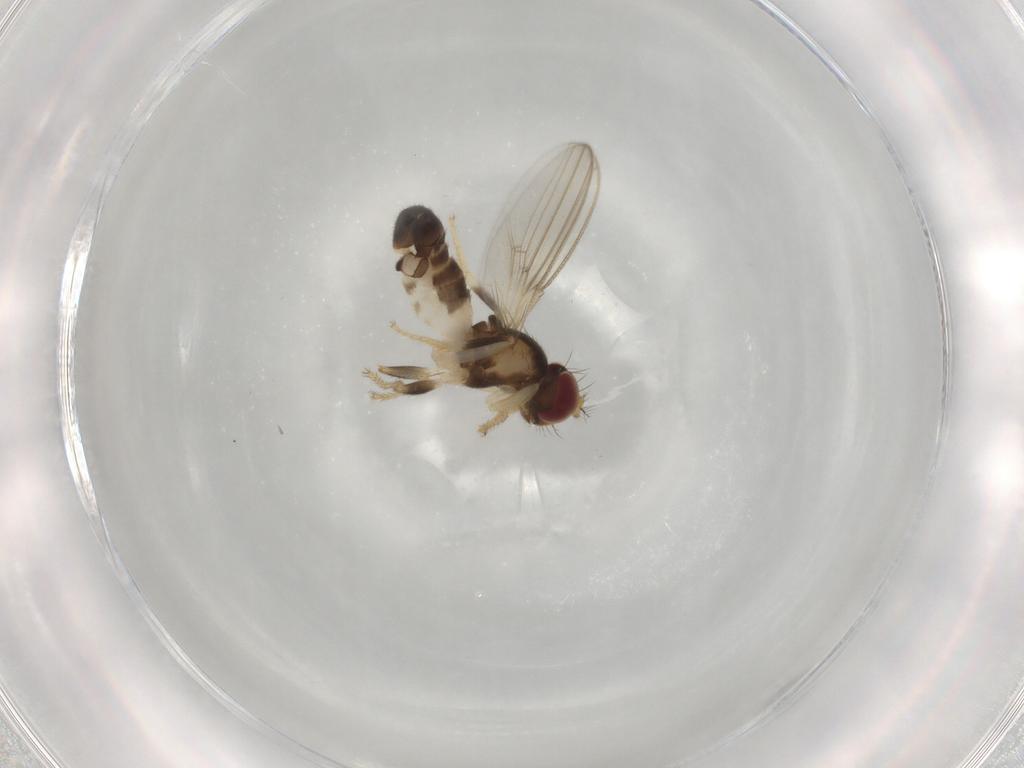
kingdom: Animalia
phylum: Arthropoda
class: Insecta
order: Diptera
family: Periscelididae
